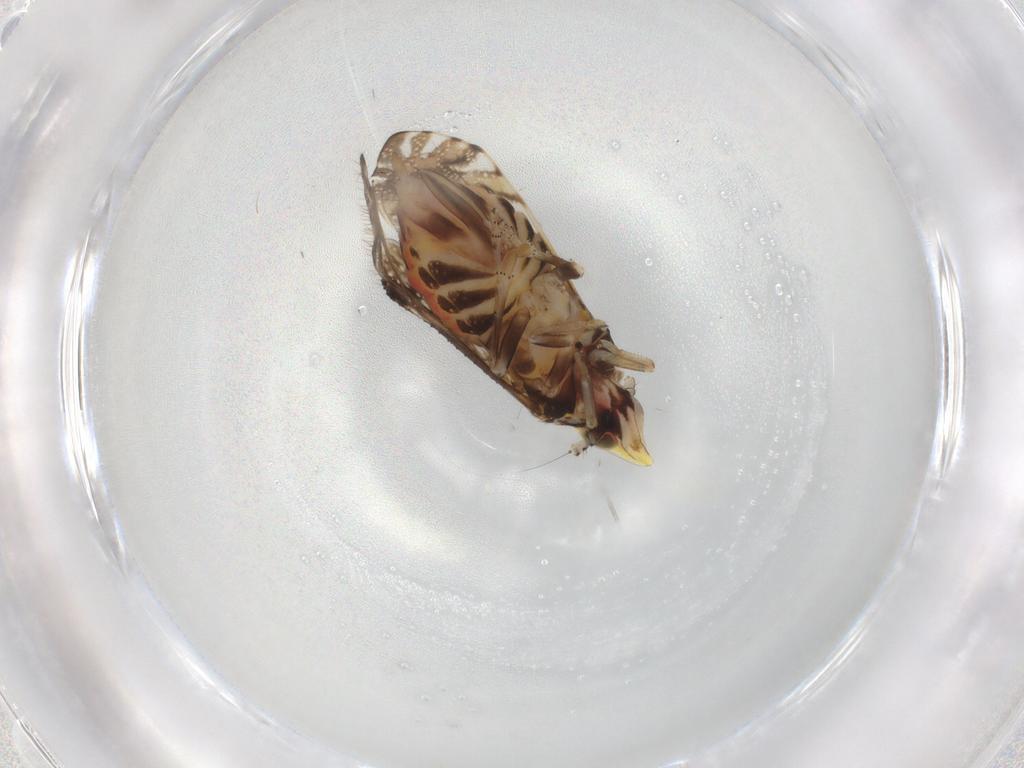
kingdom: Animalia
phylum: Arthropoda
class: Insecta
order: Hemiptera
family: Delphacidae
